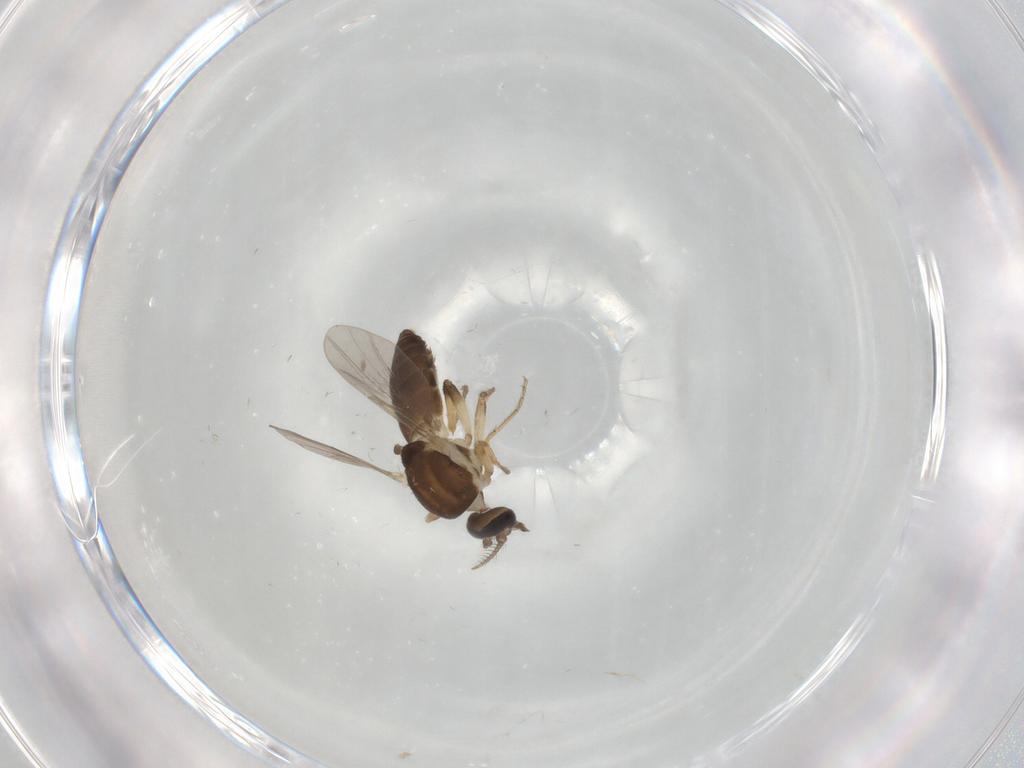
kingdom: Animalia
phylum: Arthropoda
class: Insecta
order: Diptera
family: Ceratopogonidae
